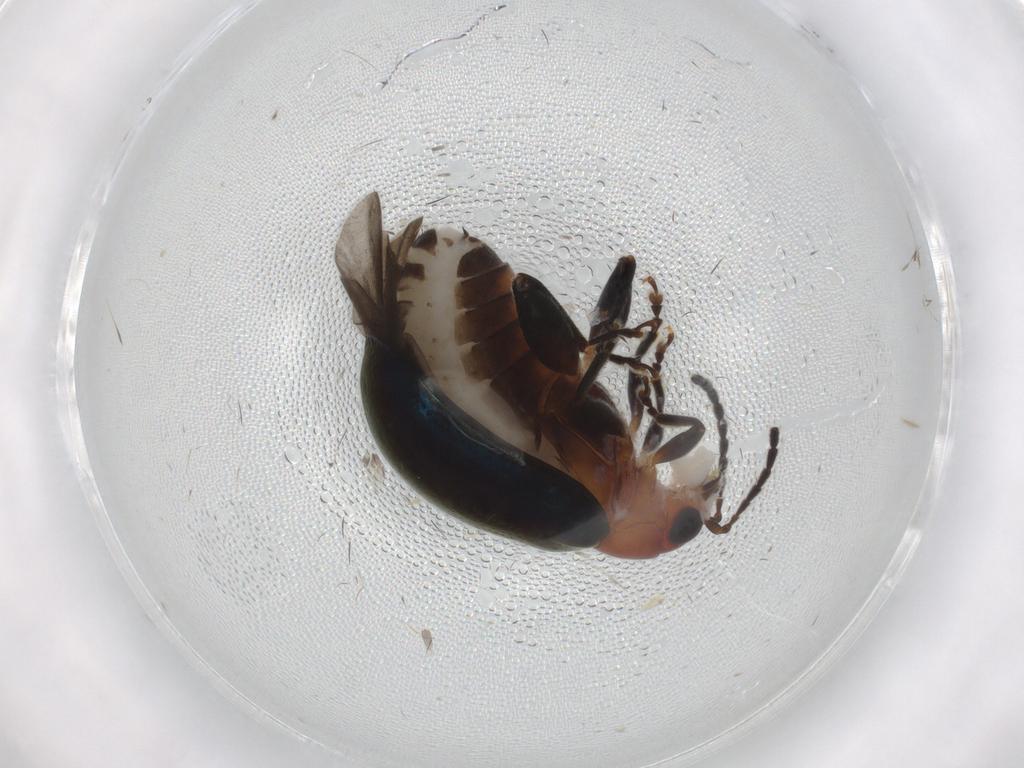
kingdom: Animalia
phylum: Arthropoda
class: Insecta
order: Coleoptera
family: Chrysomelidae
